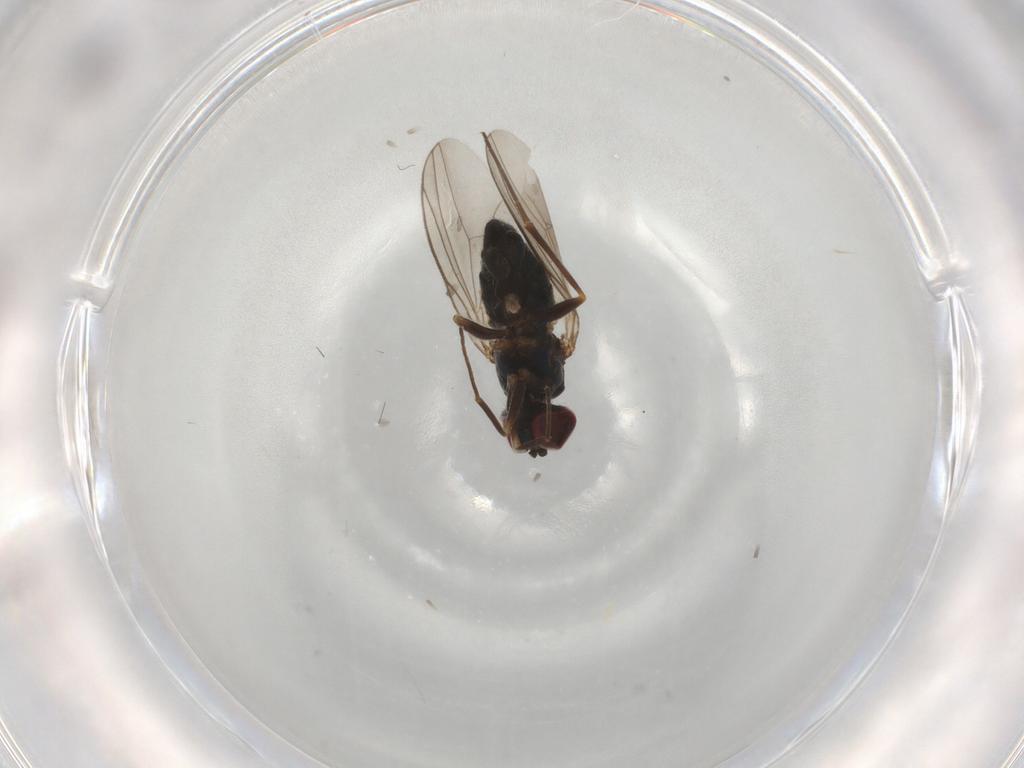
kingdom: Animalia
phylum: Arthropoda
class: Insecta
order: Diptera
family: Dolichopodidae
